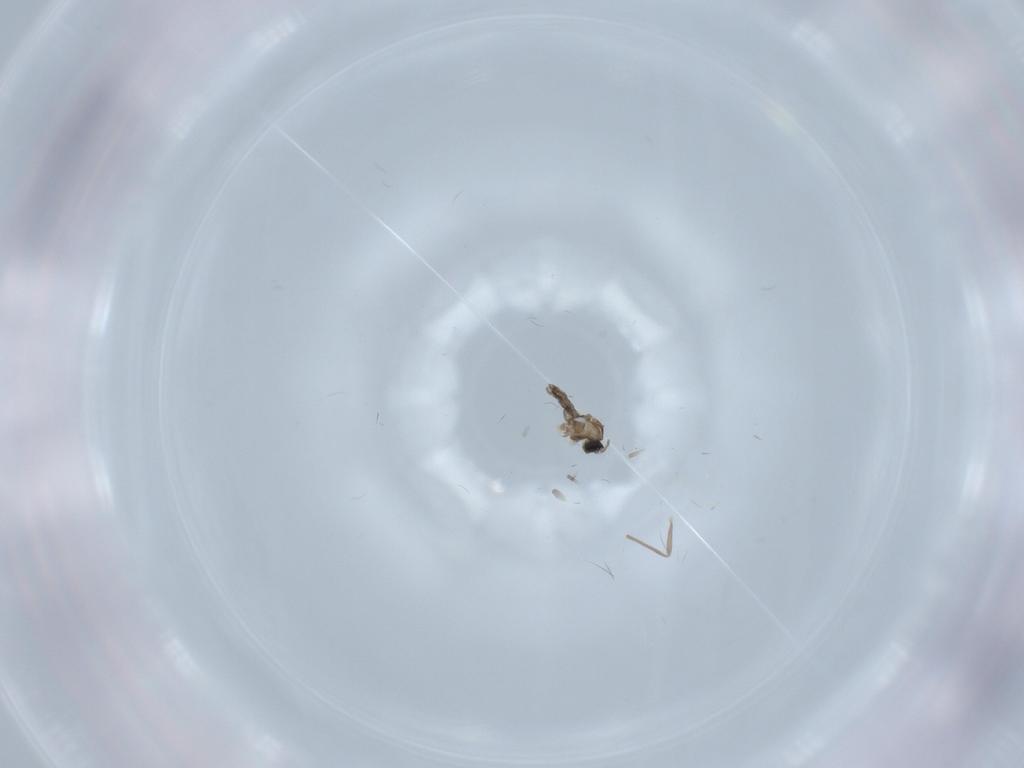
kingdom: Animalia
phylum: Arthropoda
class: Insecta
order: Diptera
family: Cecidomyiidae
